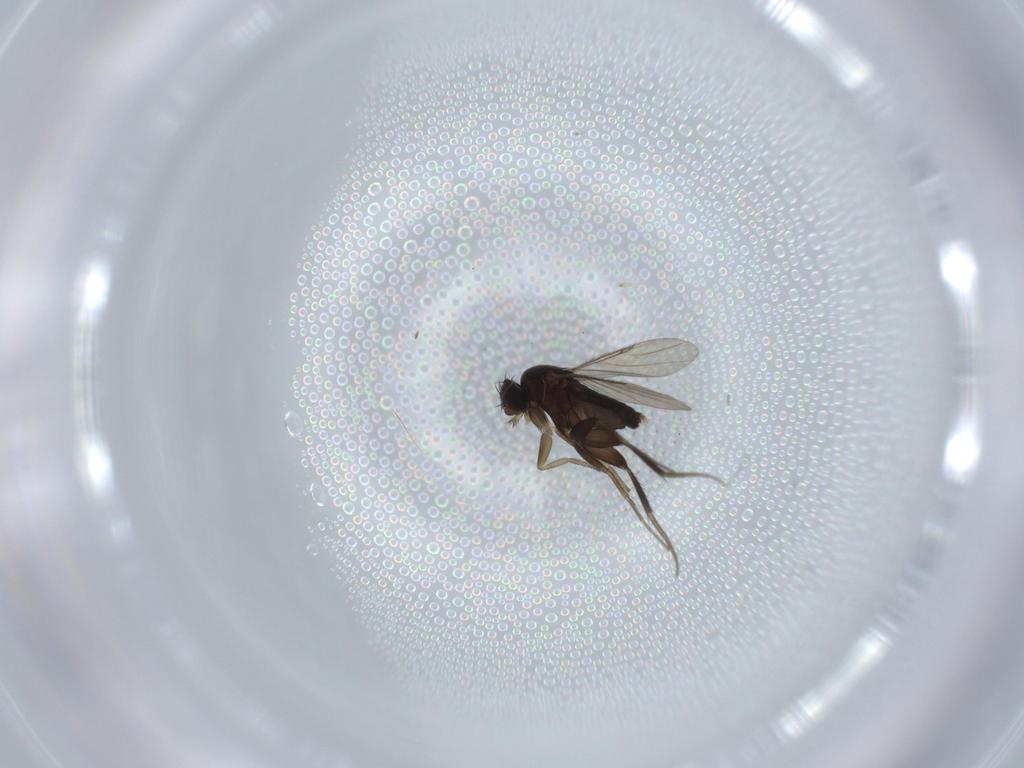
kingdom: Animalia
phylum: Arthropoda
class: Insecta
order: Diptera
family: Phoridae
